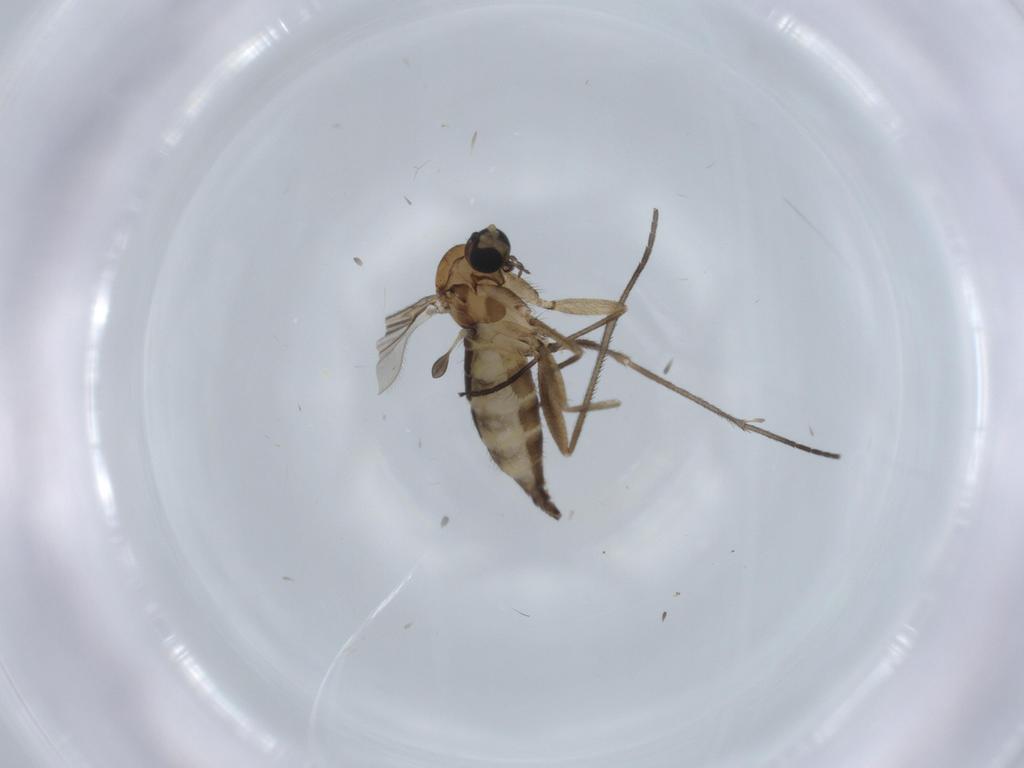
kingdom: Animalia
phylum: Arthropoda
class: Insecta
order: Diptera
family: Sciaridae
